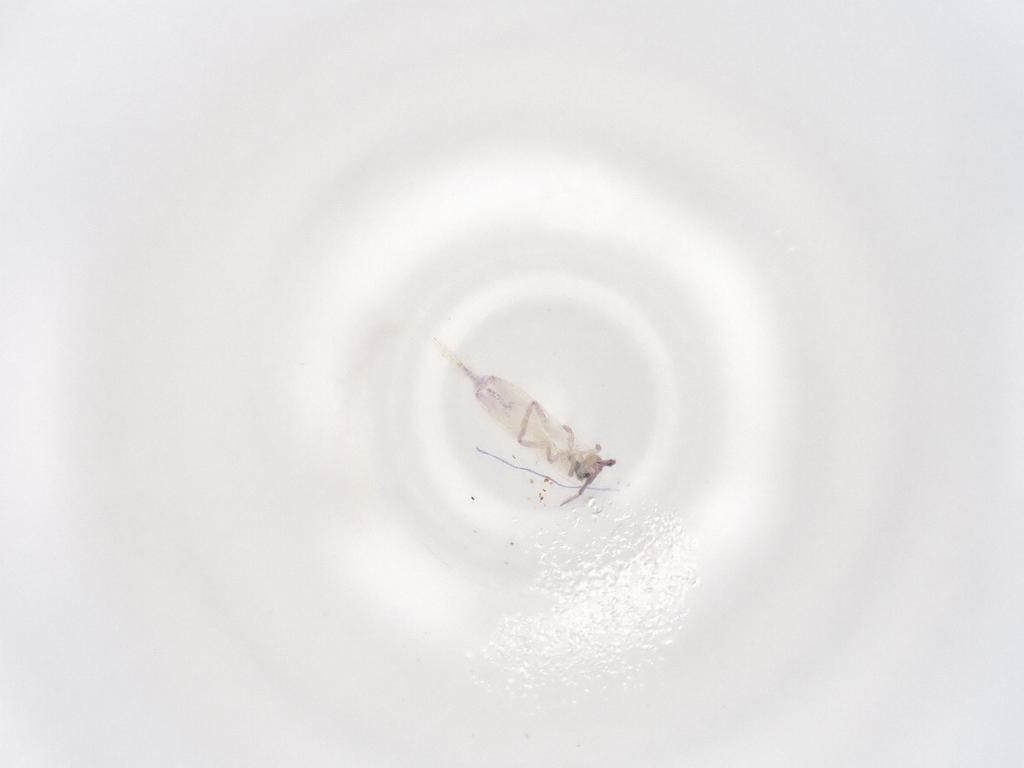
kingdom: Animalia
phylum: Arthropoda
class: Insecta
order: Hymenoptera
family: Formicidae
